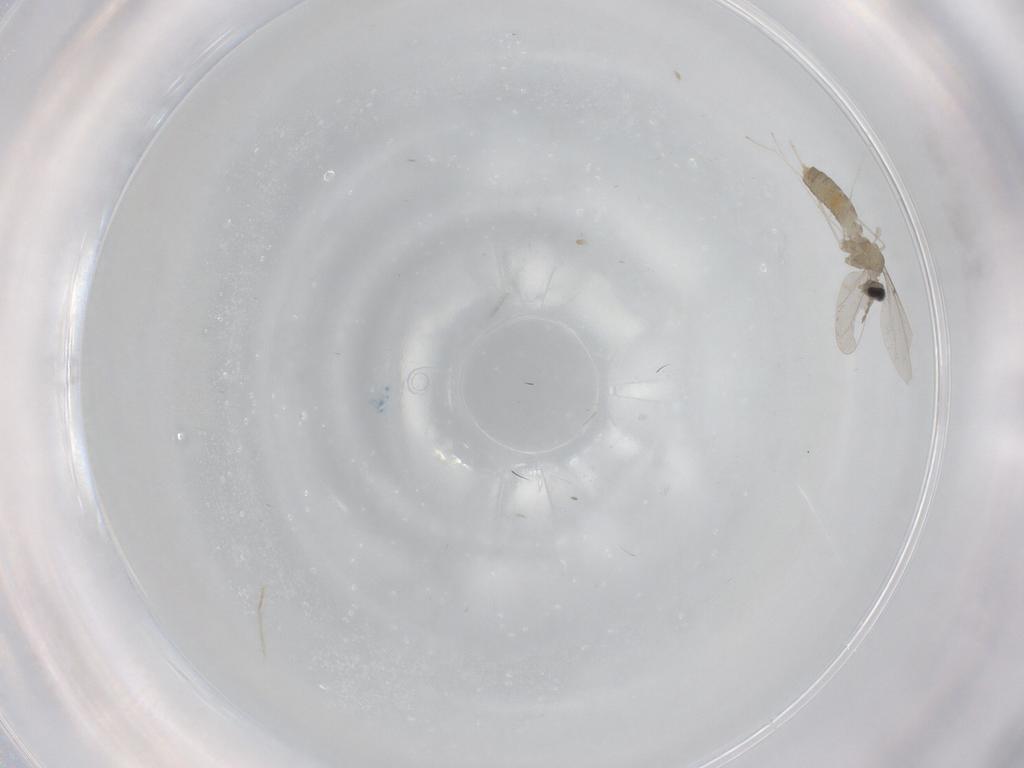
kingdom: Animalia
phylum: Arthropoda
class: Insecta
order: Diptera
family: Cecidomyiidae
